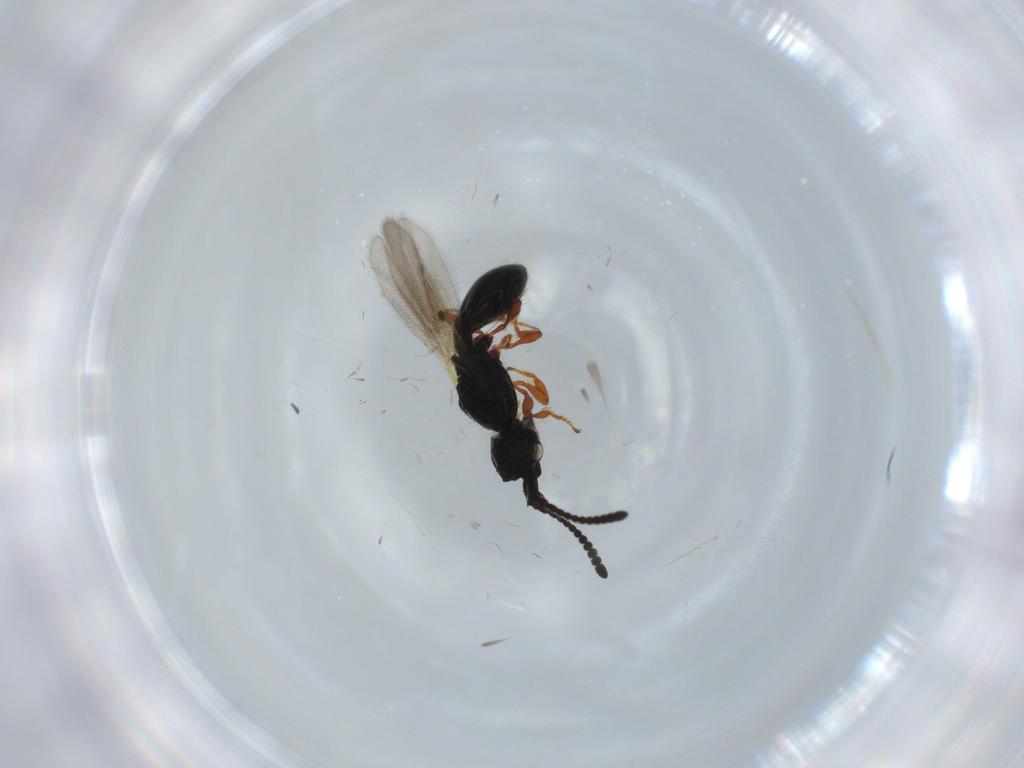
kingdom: Animalia
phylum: Arthropoda
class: Insecta
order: Hymenoptera
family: Diapriidae
